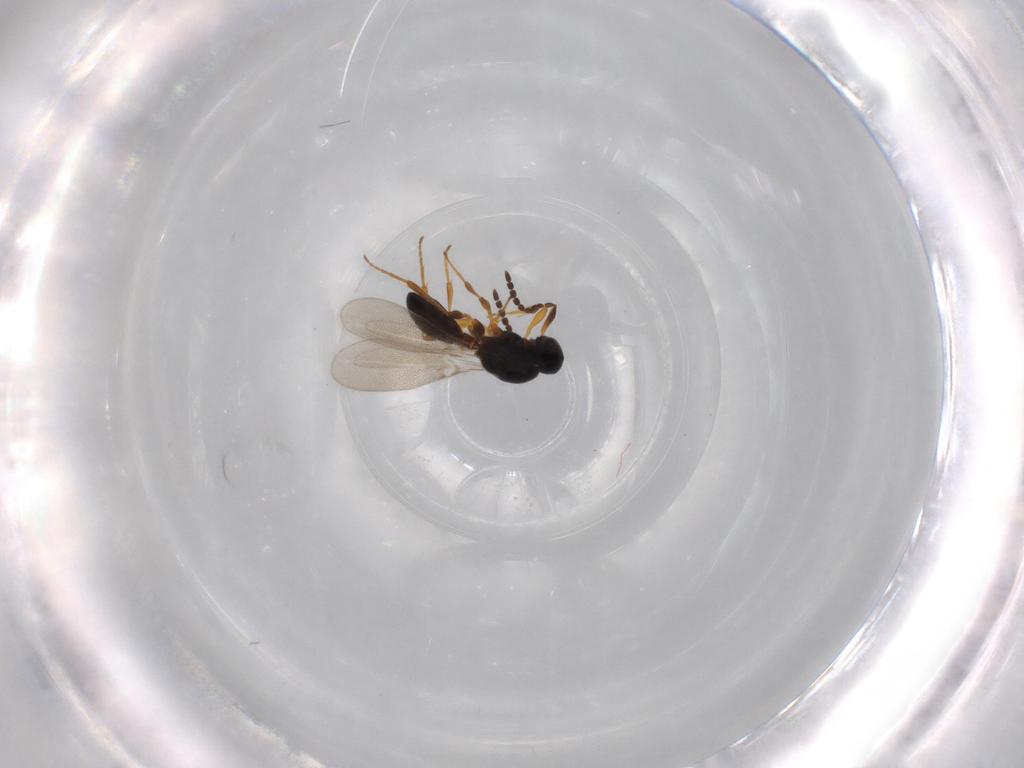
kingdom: Animalia
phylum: Arthropoda
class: Insecta
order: Hymenoptera
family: Platygastridae
